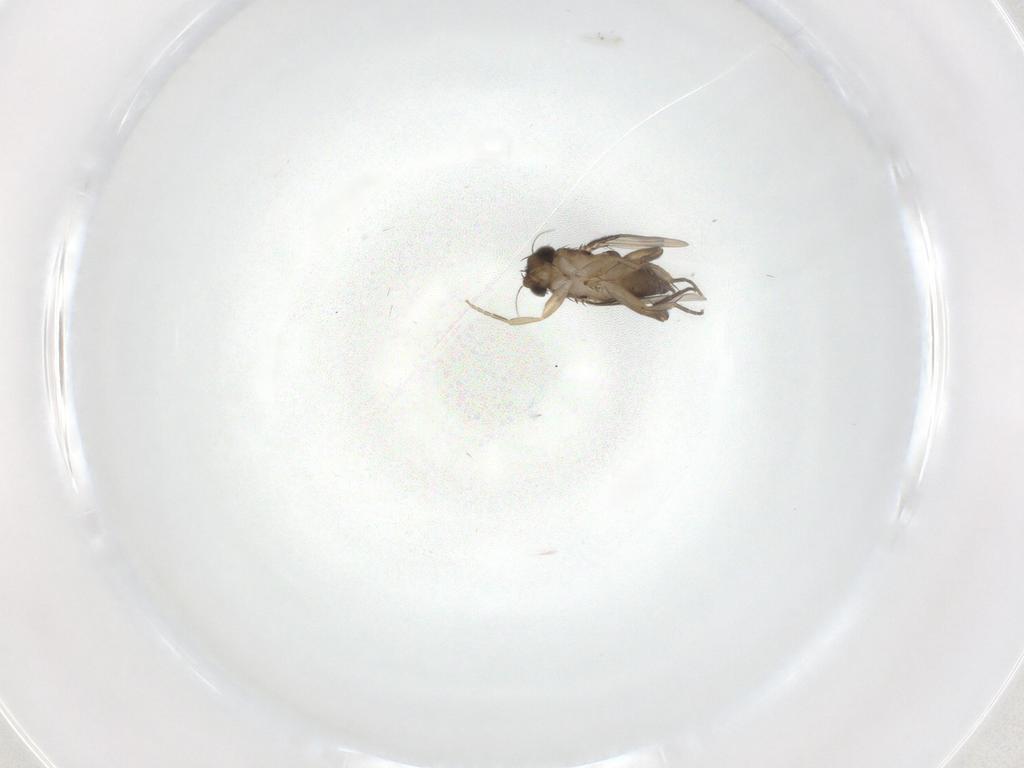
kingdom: Animalia
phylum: Arthropoda
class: Insecta
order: Diptera
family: Phoridae
